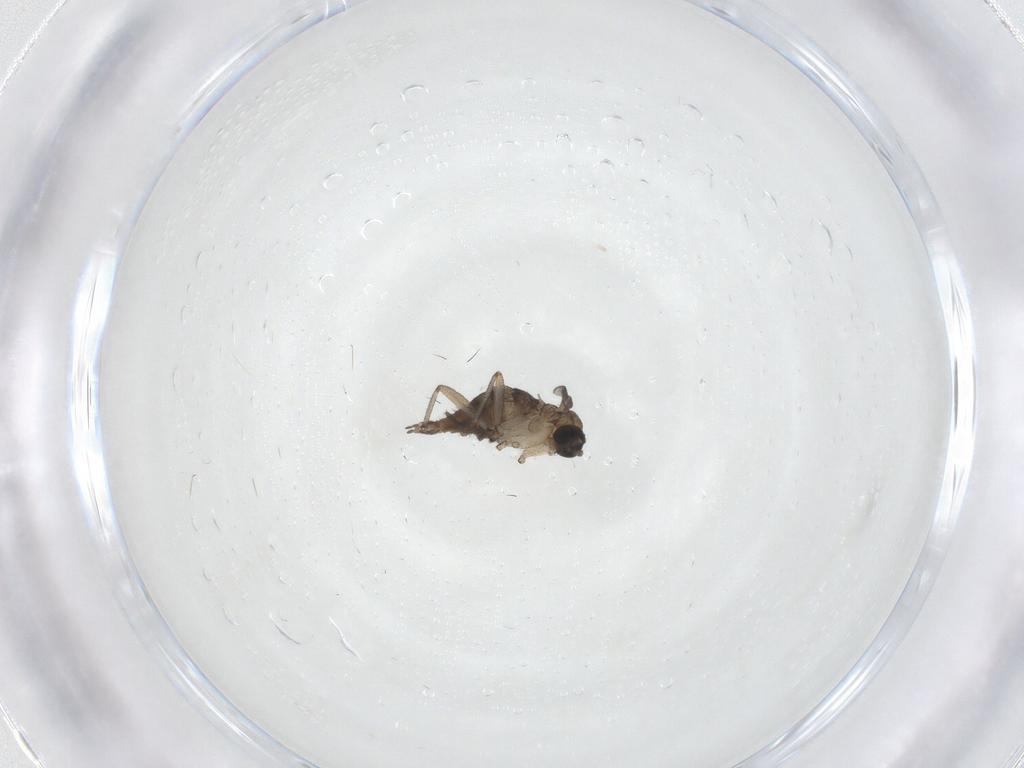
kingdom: Animalia
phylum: Arthropoda
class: Insecta
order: Diptera
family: Sciaridae
